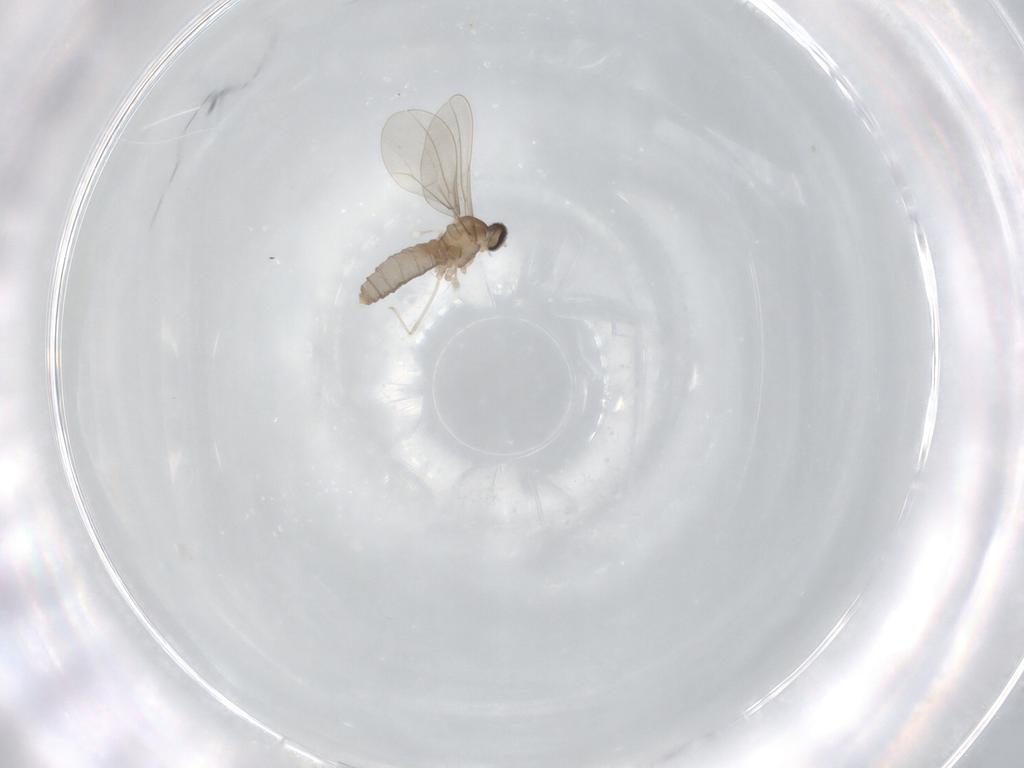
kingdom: Animalia
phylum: Arthropoda
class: Insecta
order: Diptera
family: Cecidomyiidae
